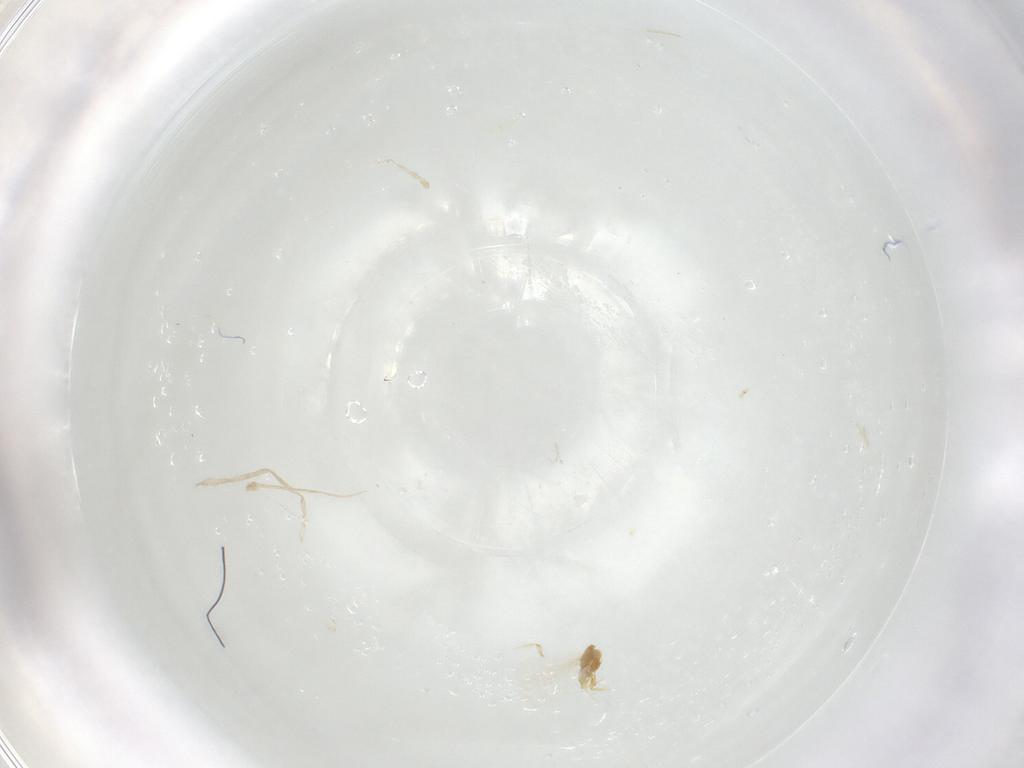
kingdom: Animalia
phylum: Arthropoda
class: Insecta
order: Hemiptera
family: Diaspididae
